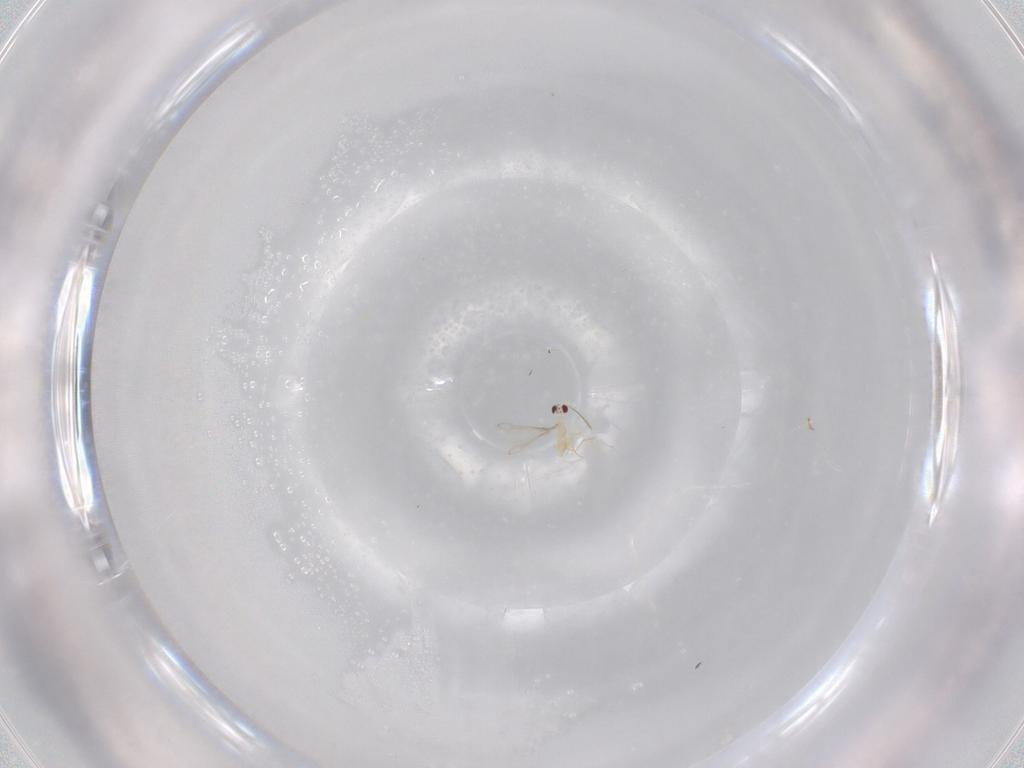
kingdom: Animalia
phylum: Arthropoda
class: Insecta
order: Hymenoptera
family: Mymaridae
